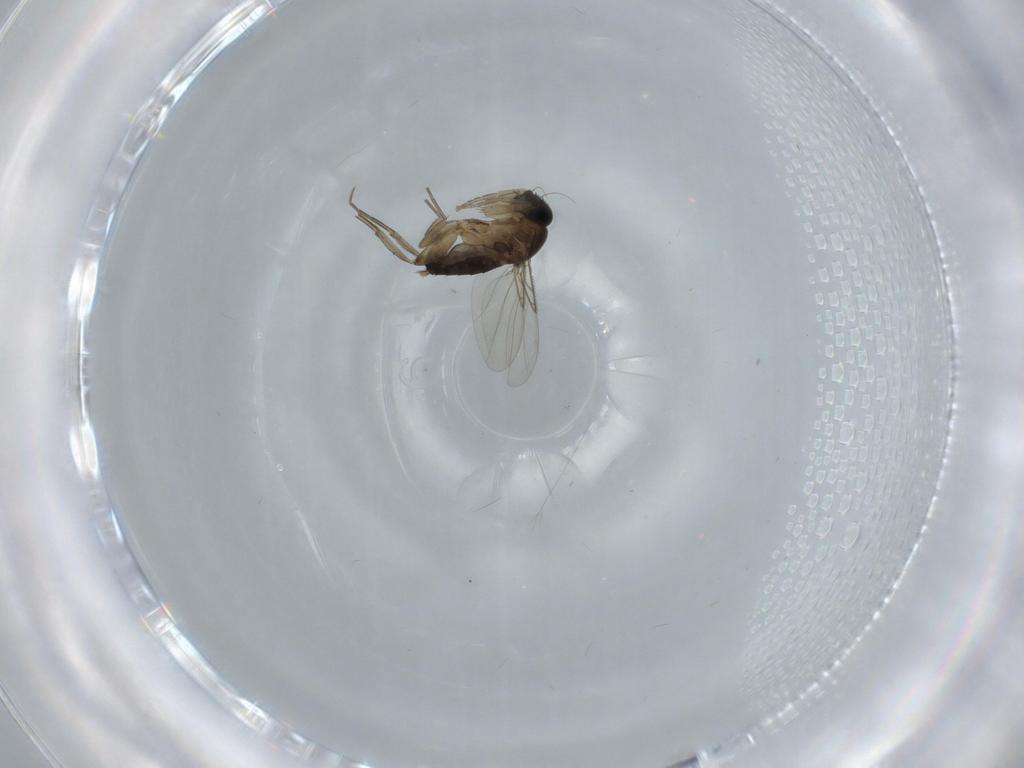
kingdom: Animalia
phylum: Arthropoda
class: Insecta
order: Diptera
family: Phoridae
